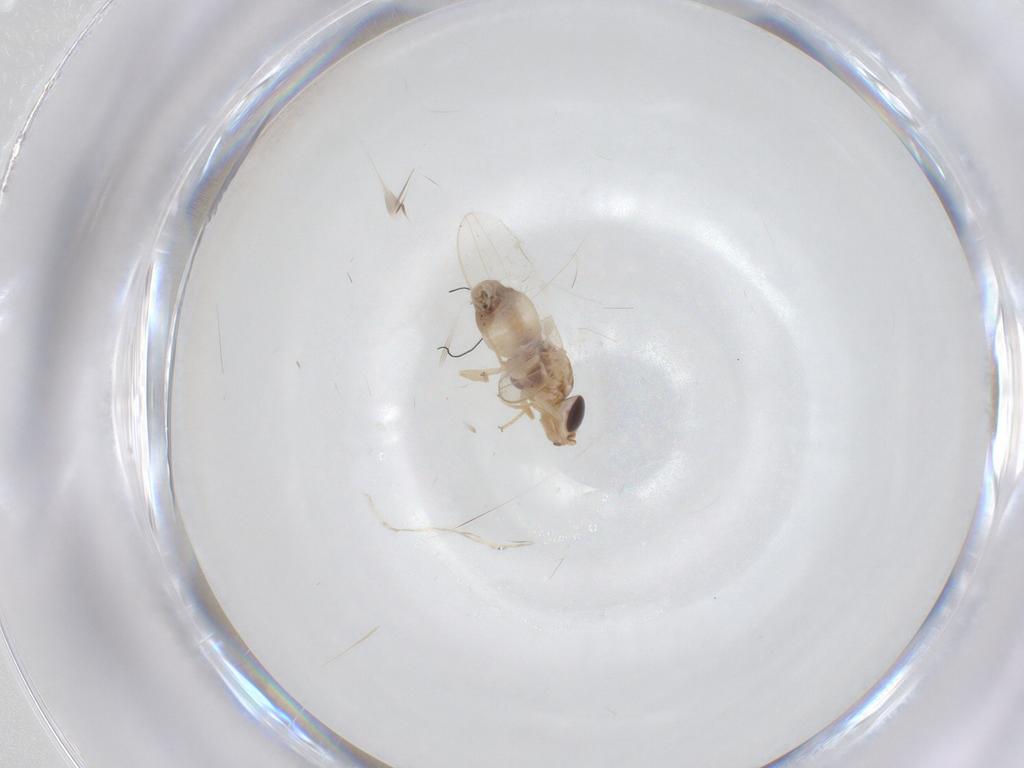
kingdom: Animalia
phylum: Arthropoda
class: Insecta
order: Diptera
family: Chloropidae
